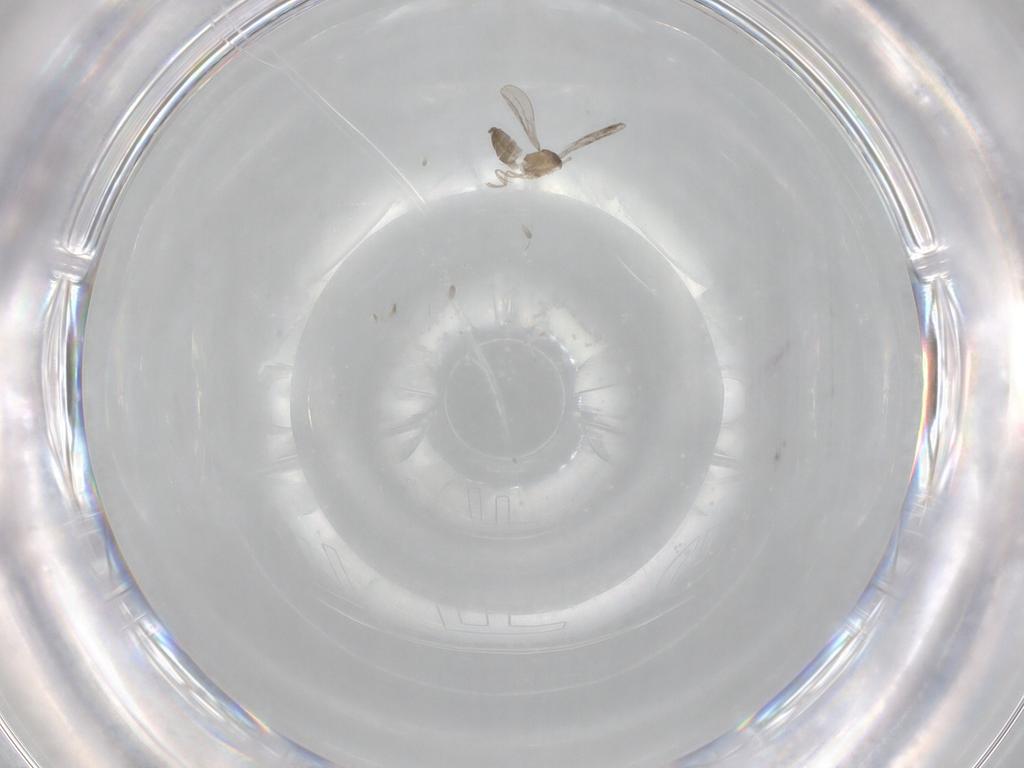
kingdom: Animalia
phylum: Arthropoda
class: Insecta
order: Diptera
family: Cecidomyiidae
